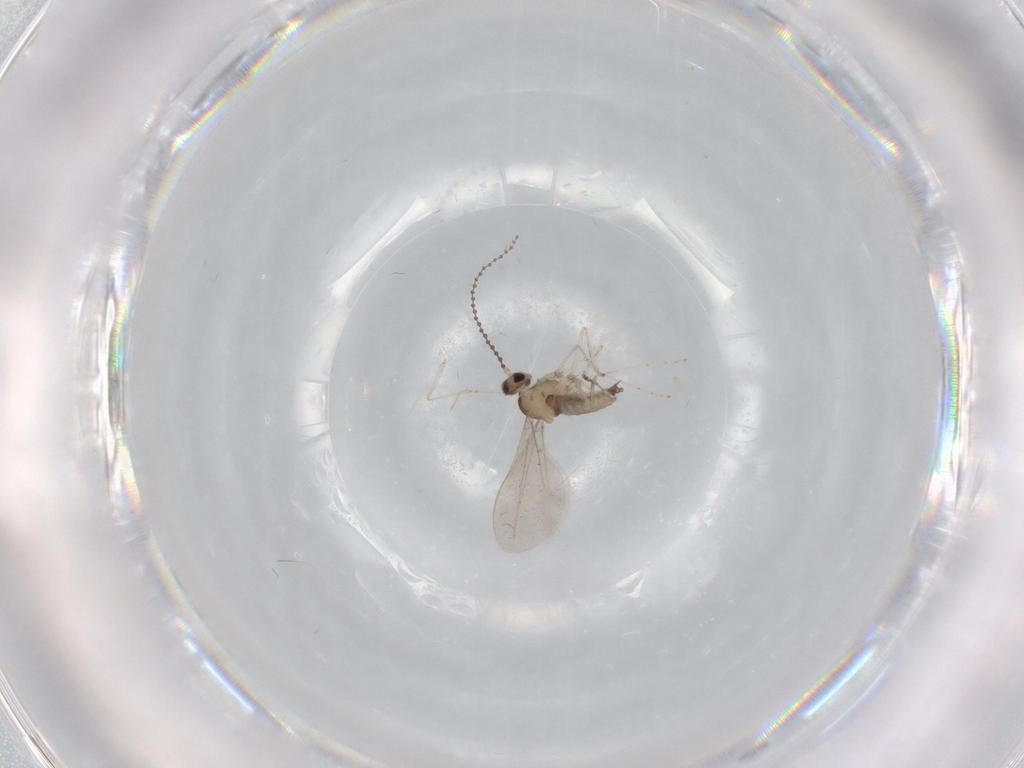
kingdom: Animalia
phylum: Arthropoda
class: Insecta
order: Diptera
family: Cecidomyiidae
